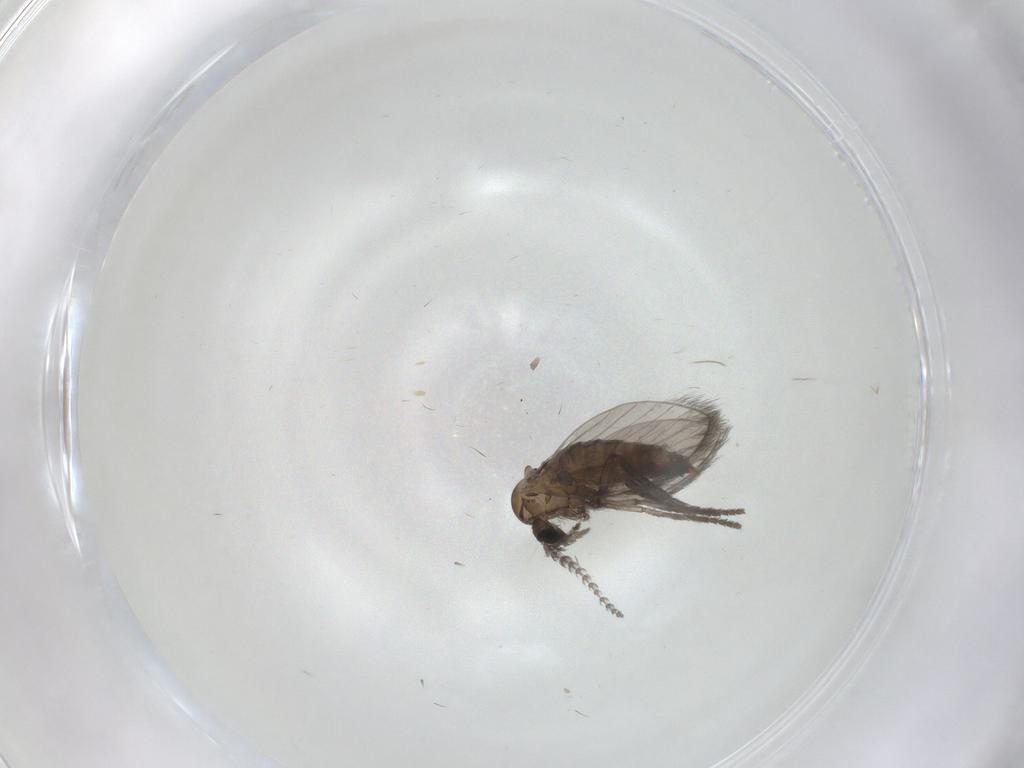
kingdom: Animalia
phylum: Arthropoda
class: Insecta
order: Diptera
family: Psychodidae
